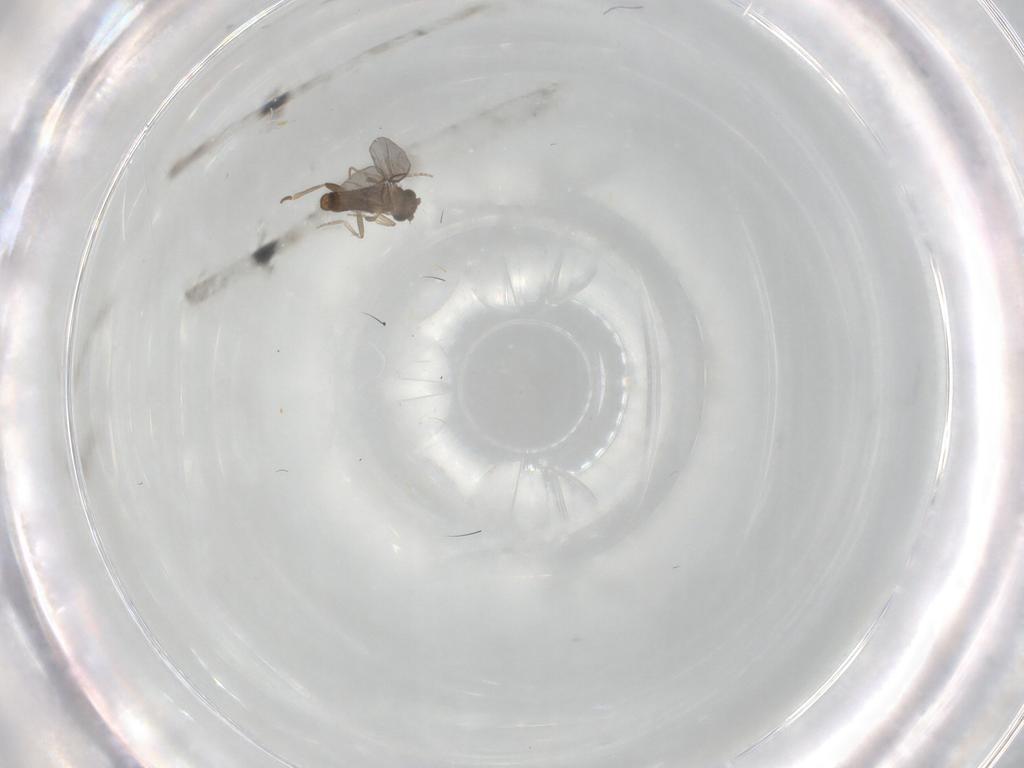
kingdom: Animalia
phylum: Arthropoda
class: Insecta
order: Diptera
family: Phoridae
